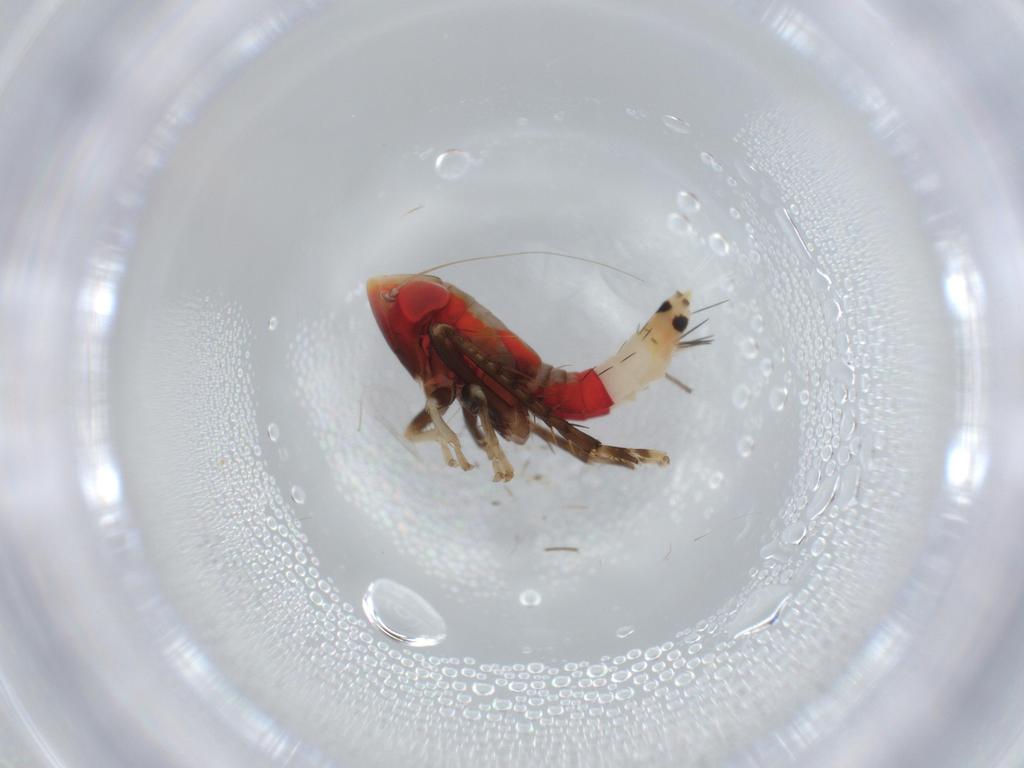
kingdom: Animalia
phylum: Arthropoda
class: Insecta
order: Hemiptera
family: Cicadellidae
